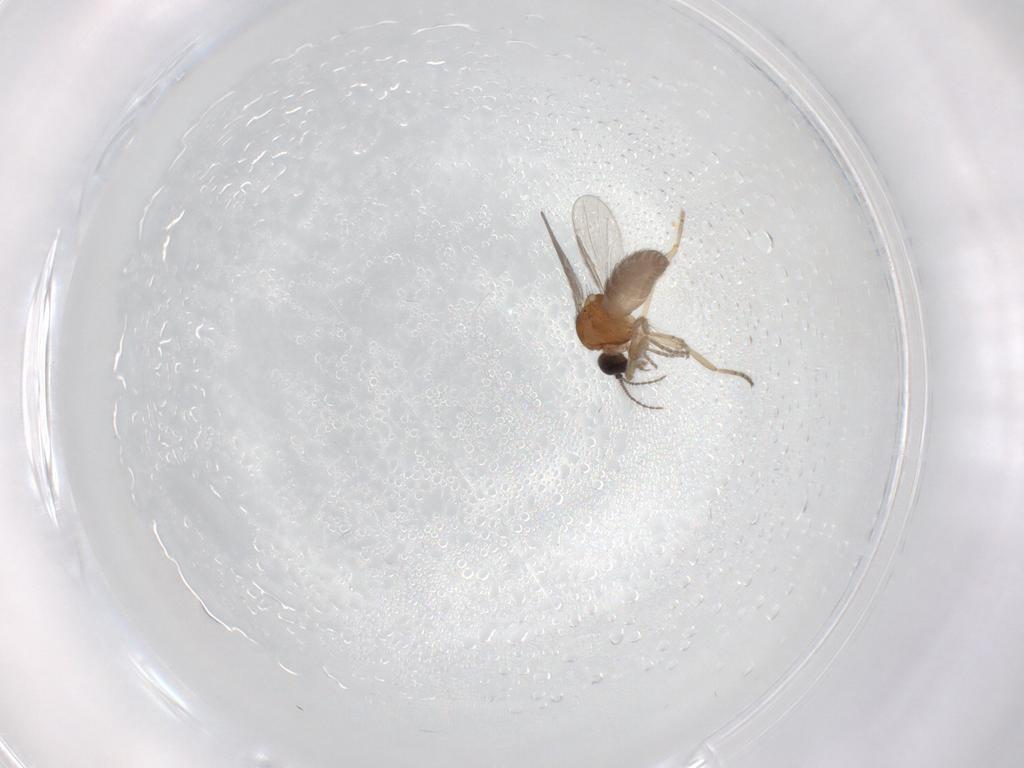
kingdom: Animalia
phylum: Arthropoda
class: Insecta
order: Diptera
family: Ceratopogonidae
